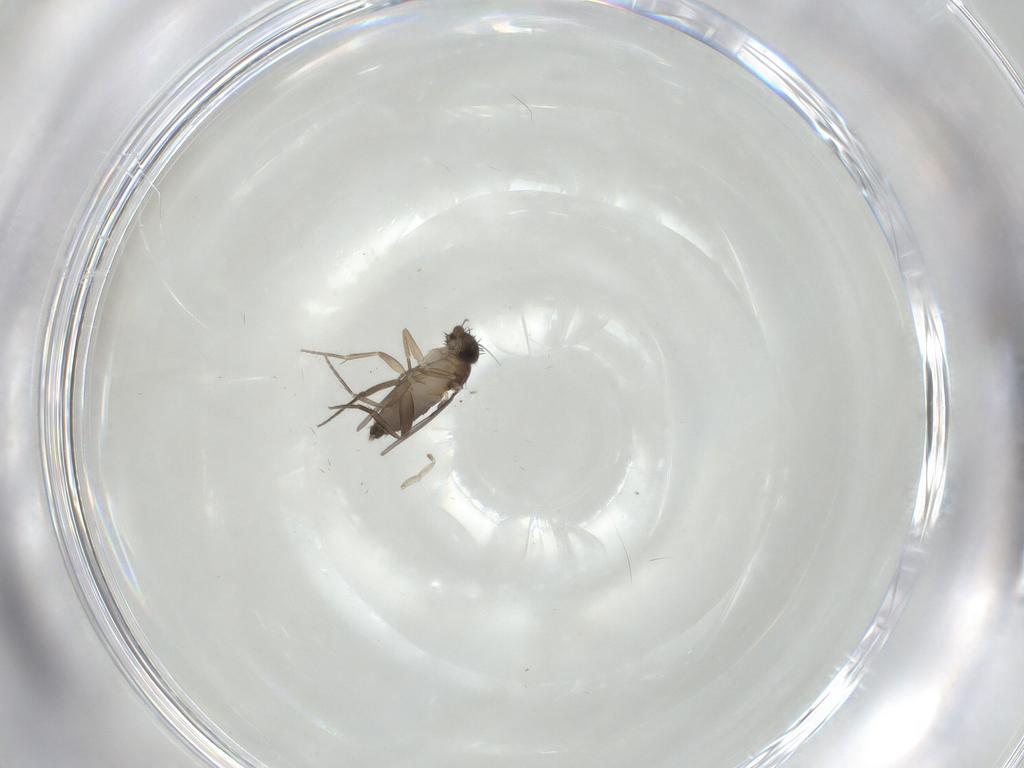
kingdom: Animalia
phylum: Arthropoda
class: Insecta
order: Diptera
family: Phoridae
